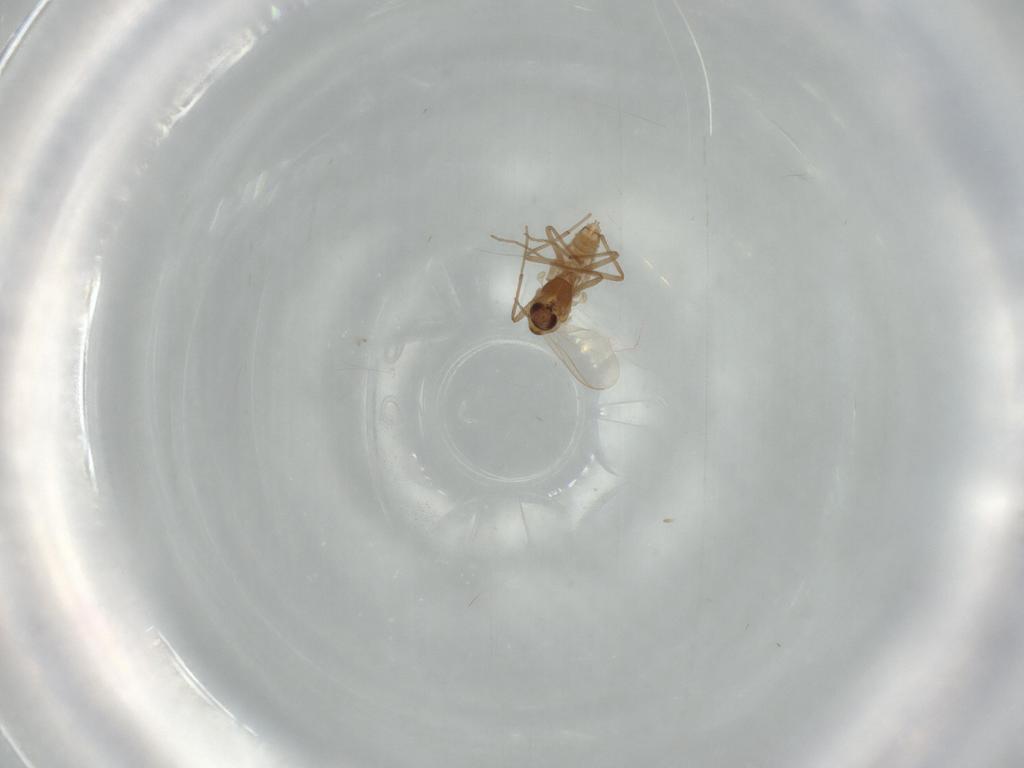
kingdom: Animalia
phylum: Arthropoda
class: Insecta
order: Diptera
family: Chironomidae
